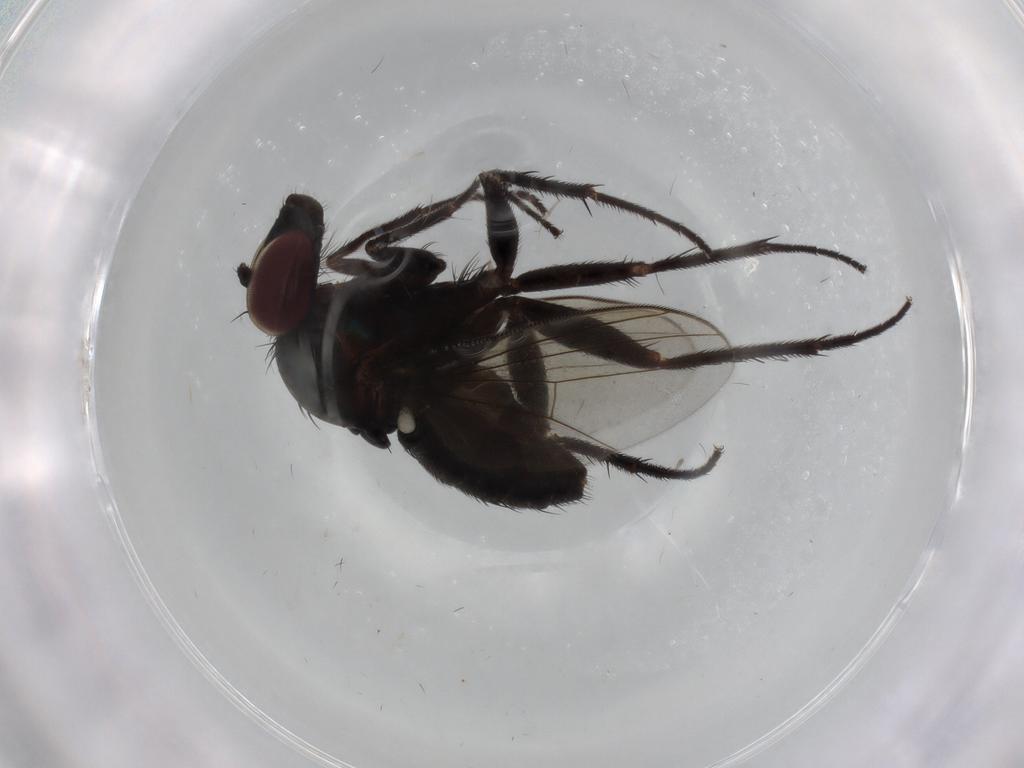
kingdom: Animalia
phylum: Arthropoda
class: Insecta
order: Diptera
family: Dolichopodidae
